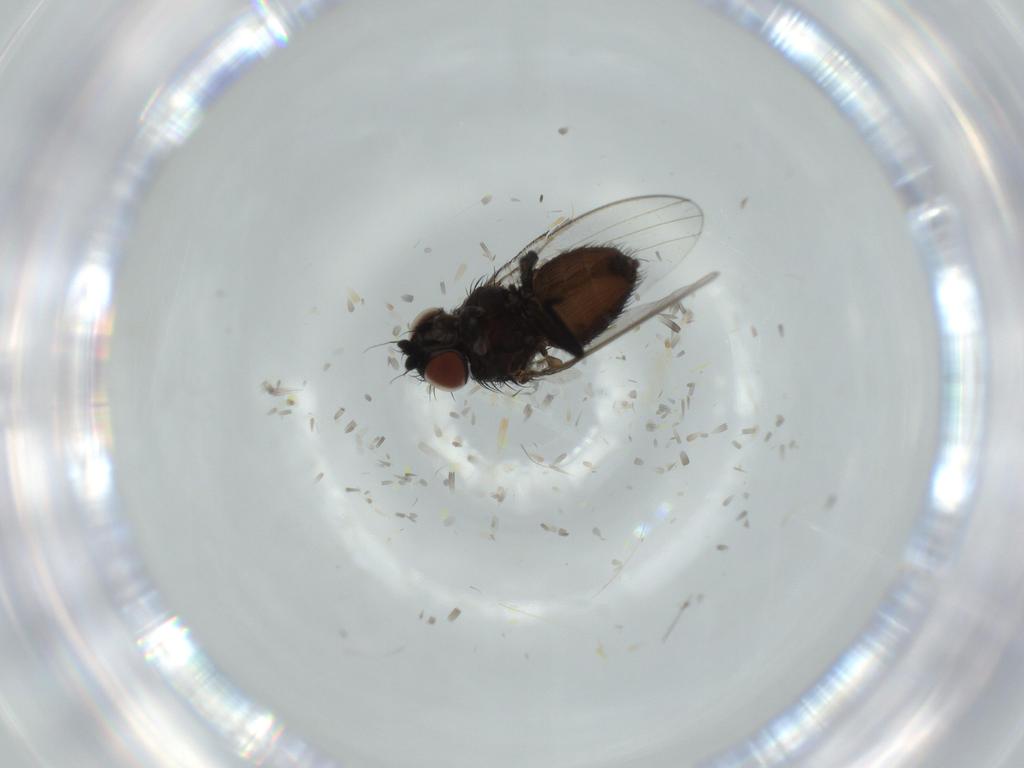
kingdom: Animalia
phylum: Arthropoda
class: Insecta
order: Diptera
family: Milichiidae
